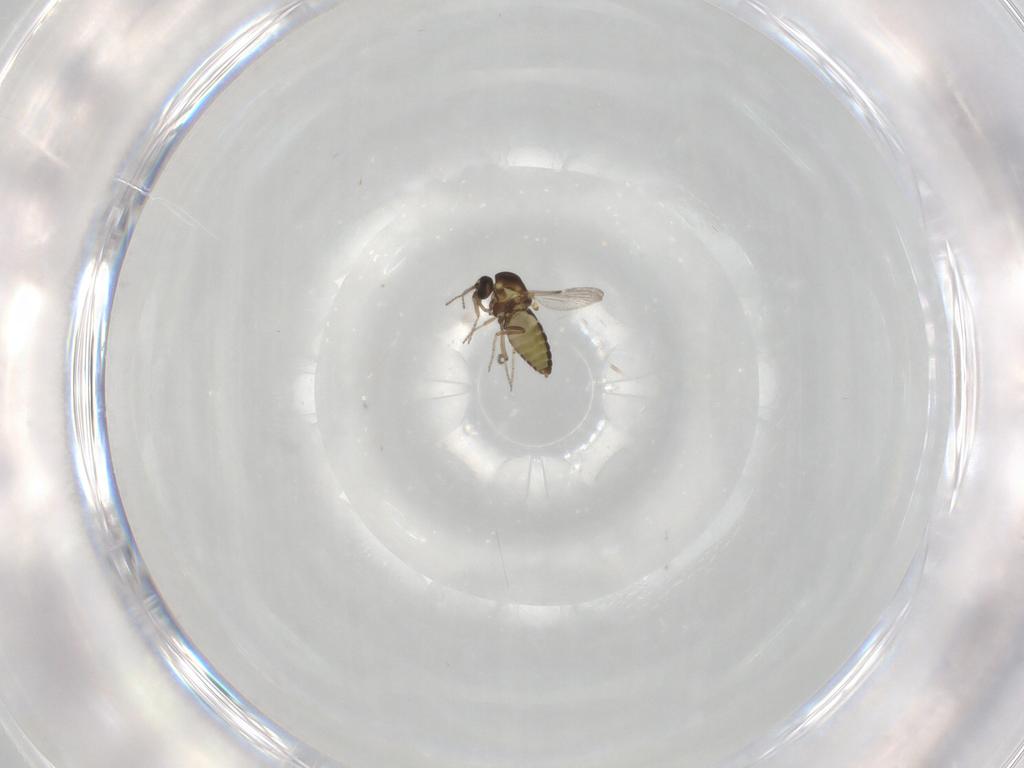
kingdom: Animalia
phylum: Arthropoda
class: Insecta
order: Diptera
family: Ceratopogonidae
